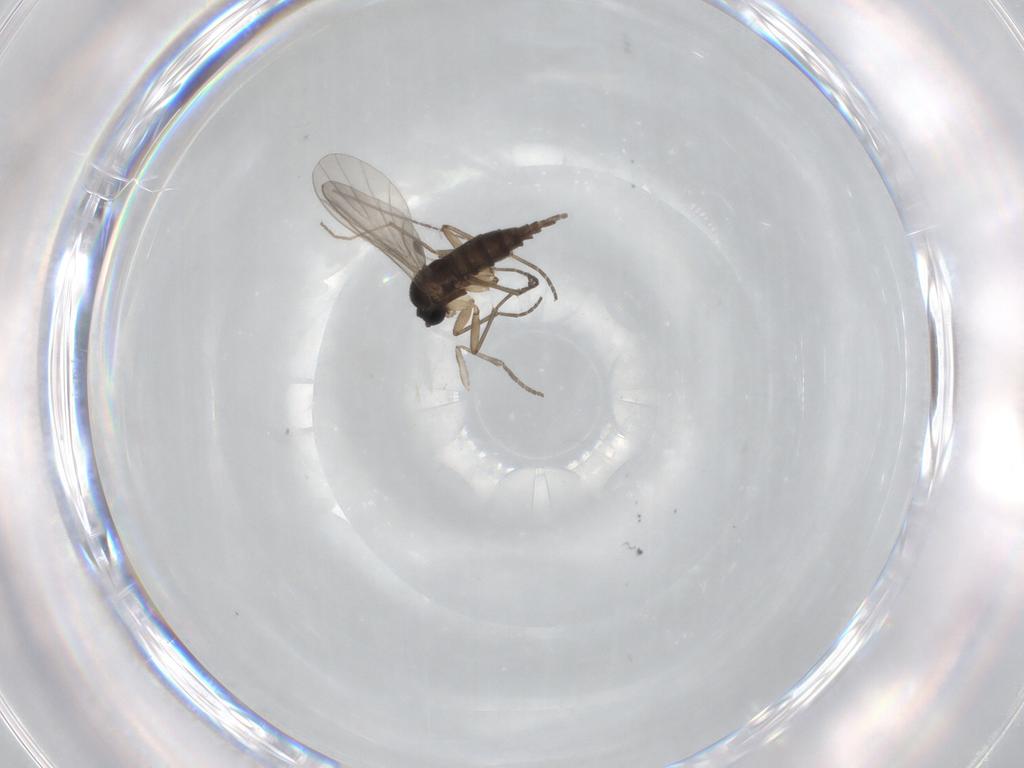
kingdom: Animalia
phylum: Arthropoda
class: Insecta
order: Diptera
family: Sciaridae
